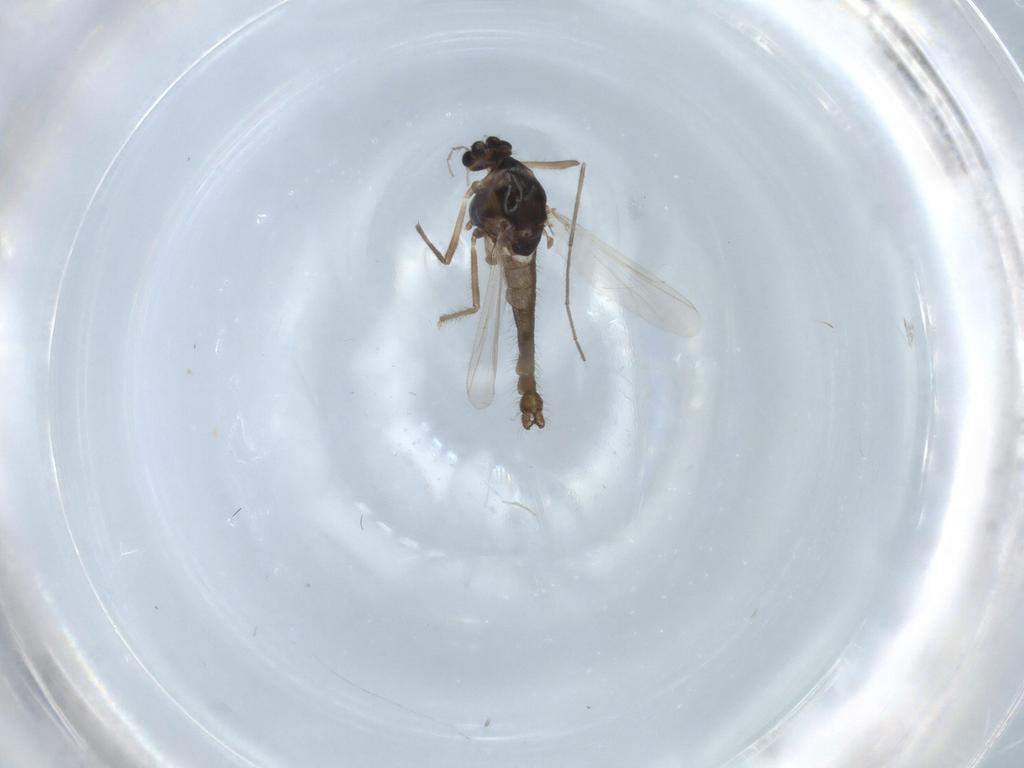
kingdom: Animalia
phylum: Arthropoda
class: Insecta
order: Diptera
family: Chironomidae
